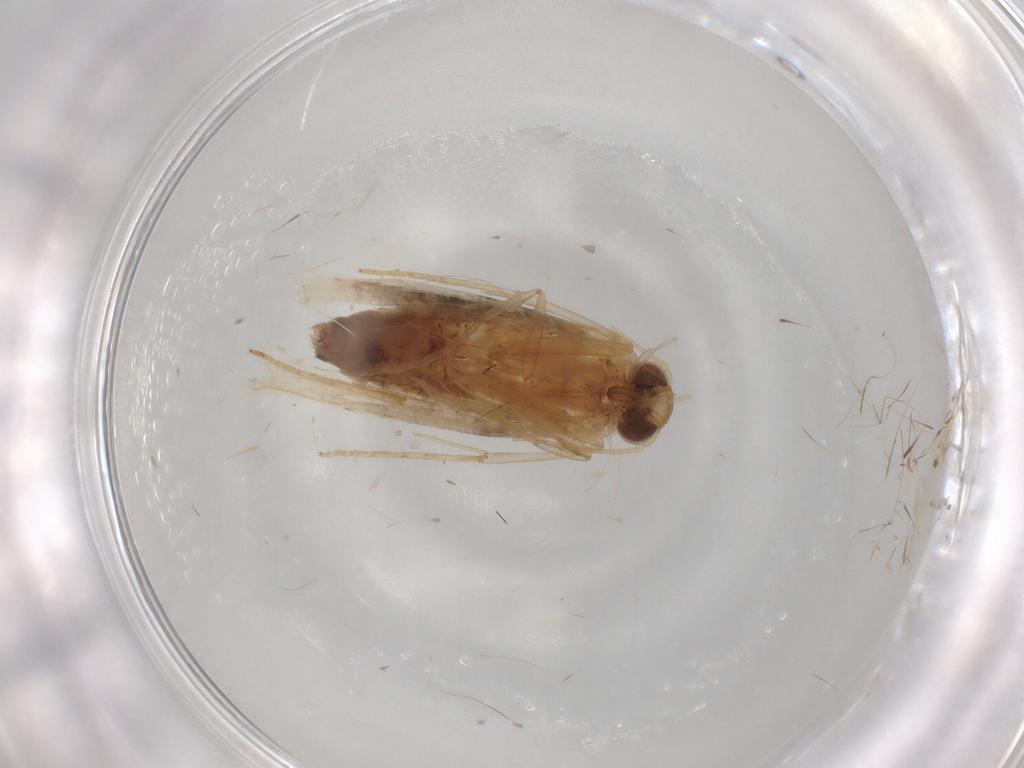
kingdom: Animalia
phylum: Arthropoda
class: Insecta
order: Lepidoptera
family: Erebidae
